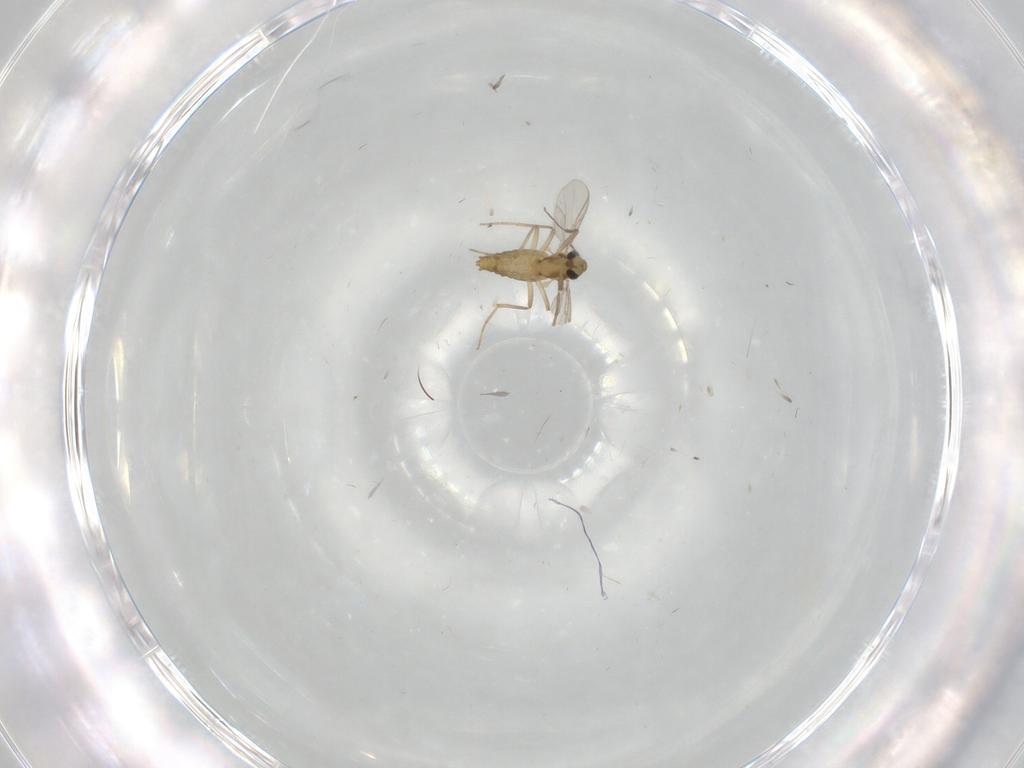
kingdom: Animalia
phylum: Arthropoda
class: Insecta
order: Diptera
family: Chironomidae
